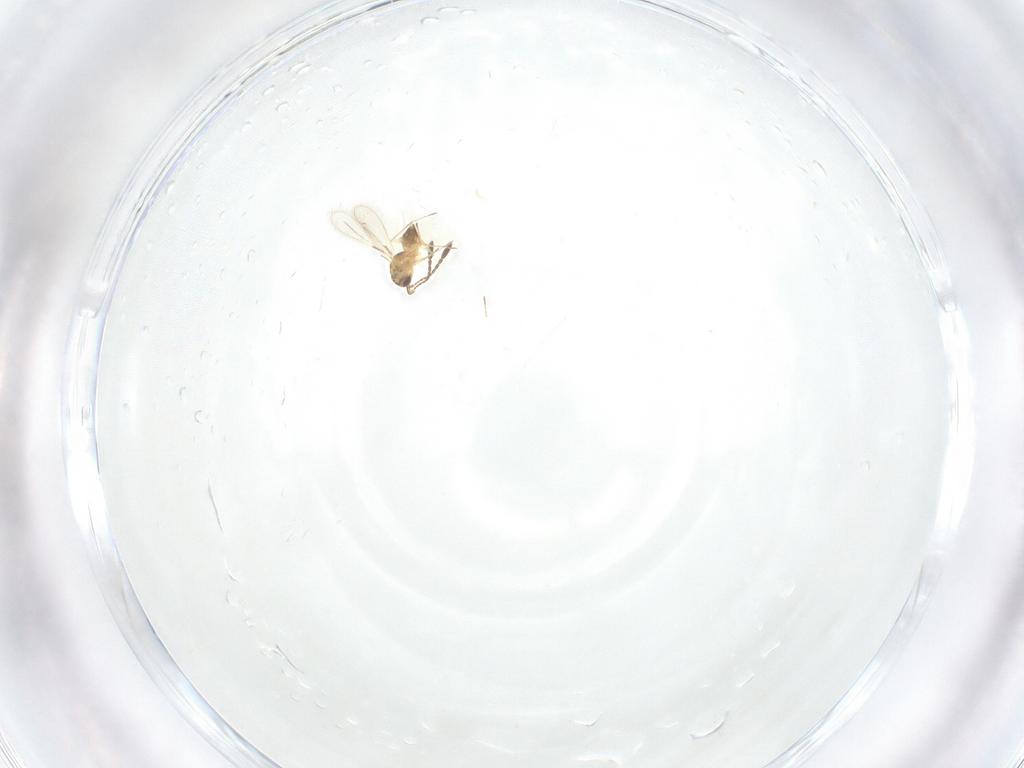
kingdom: Animalia
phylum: Arthropoda
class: Insecta
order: Hymenoptera
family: Mymaridae
